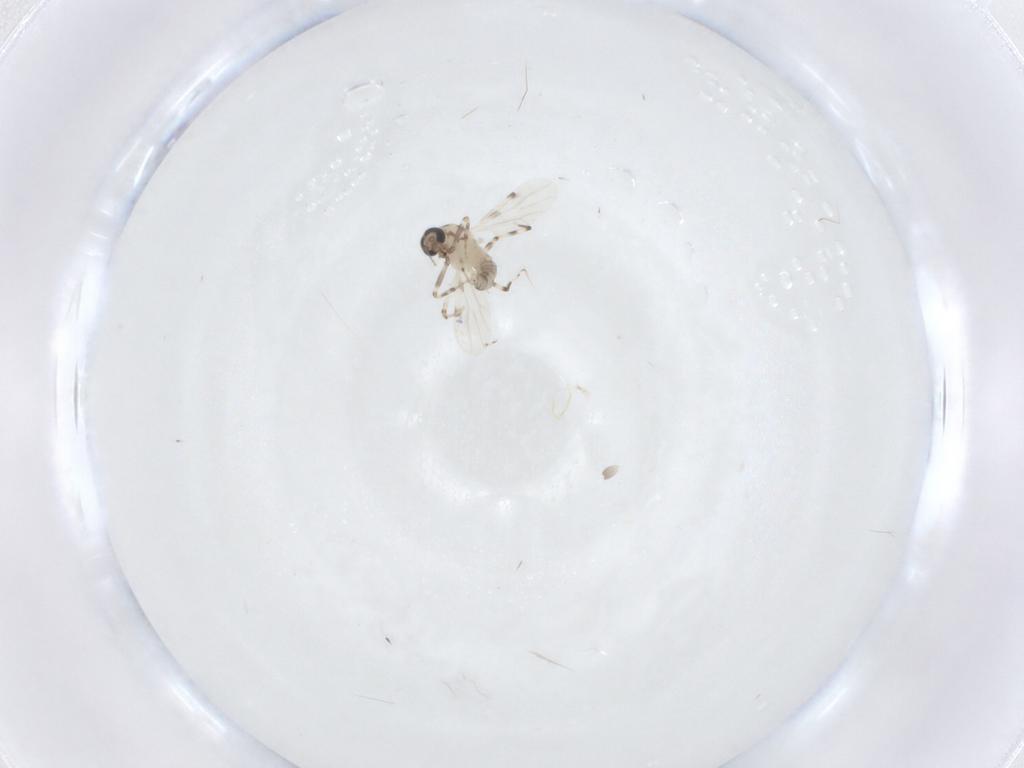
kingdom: Animalia
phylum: Arthropoda
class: Insecta
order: Diptera
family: Ceratopogonidae
